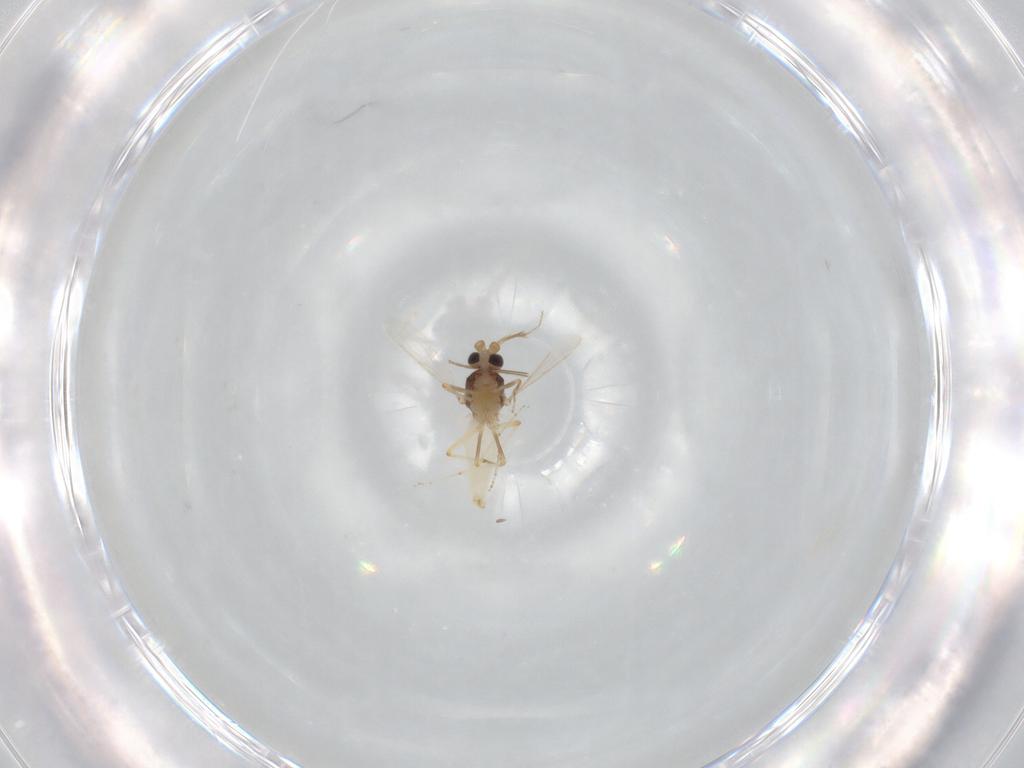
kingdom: Animalia
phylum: Arthropoda
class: Insecta
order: Diptera
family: Ceratopogonidae
